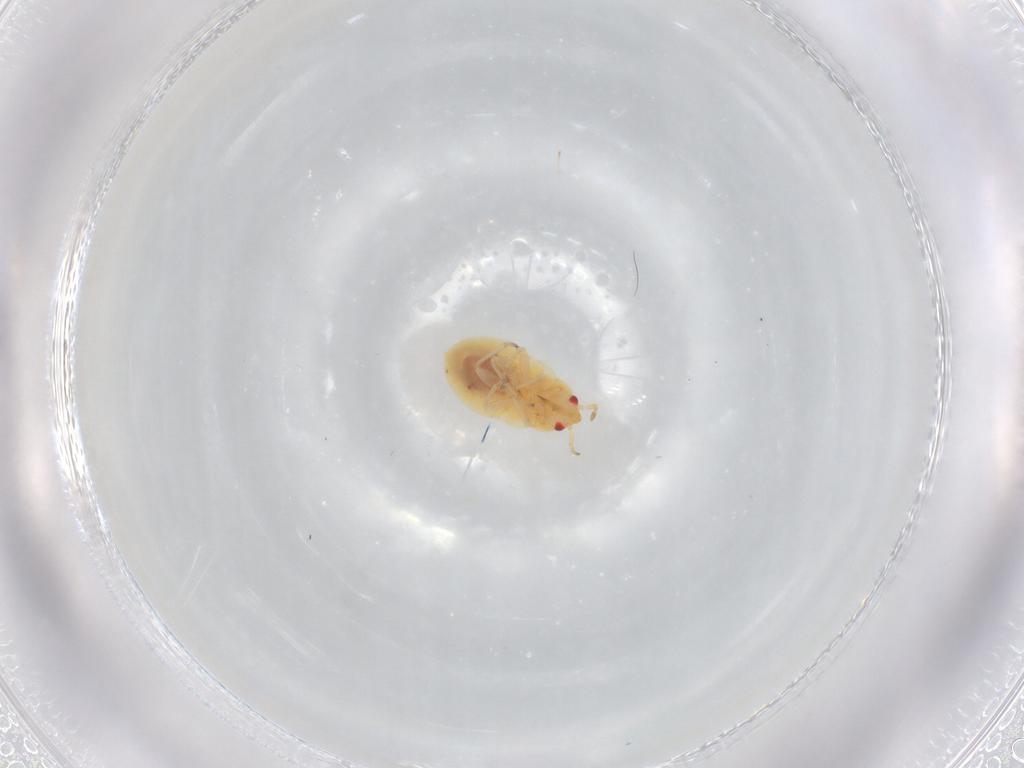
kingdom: Animalia
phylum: Arthropoda
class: Insecta
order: Hemiptera
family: Miridae
